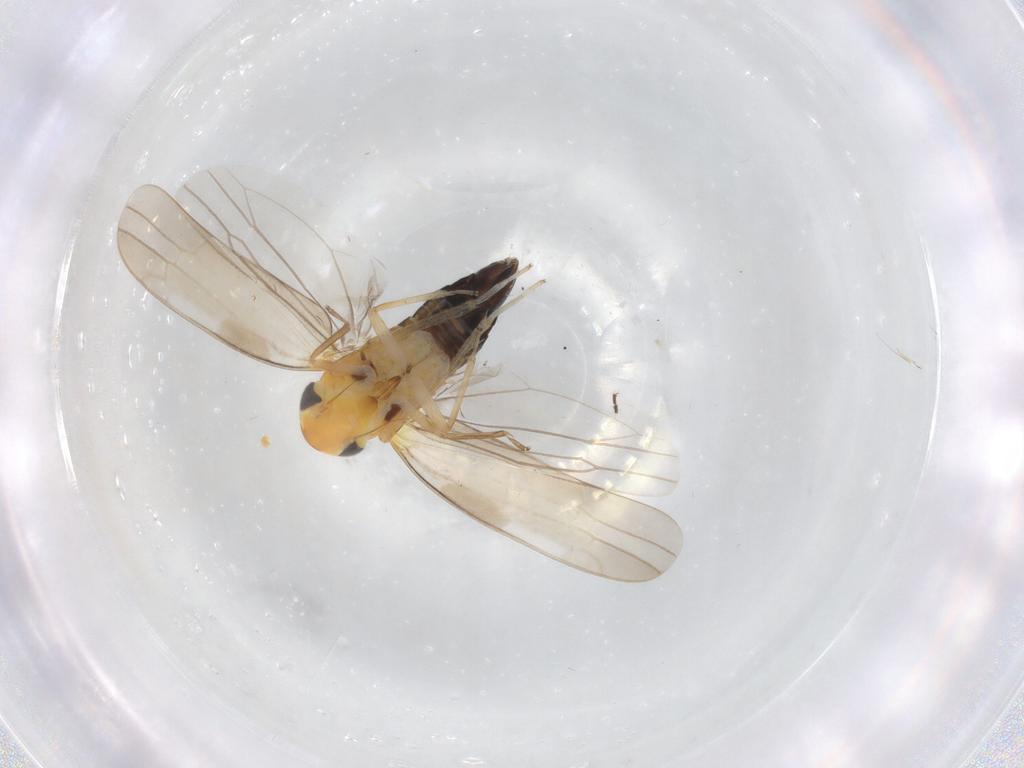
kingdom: Animalia
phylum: Arthropoda
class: Insecta
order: Hemiptera
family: Cicadellidae
